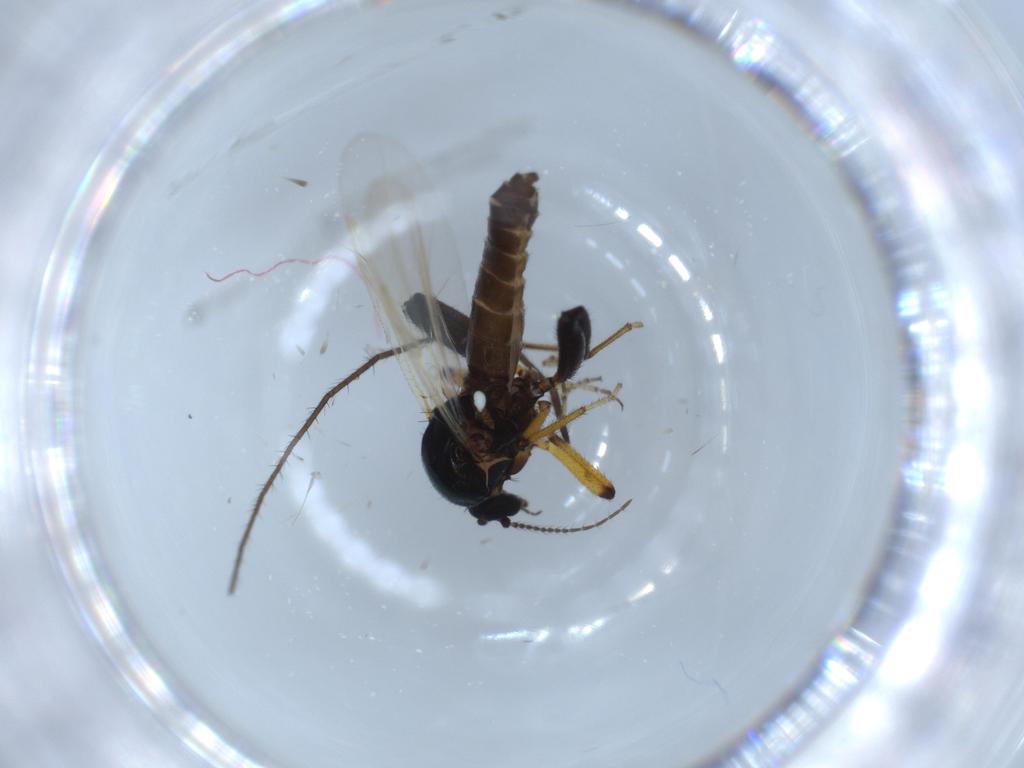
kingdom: Animalia
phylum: Arthropoda
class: Insecta
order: Diptera
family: Ceratopogonidae
